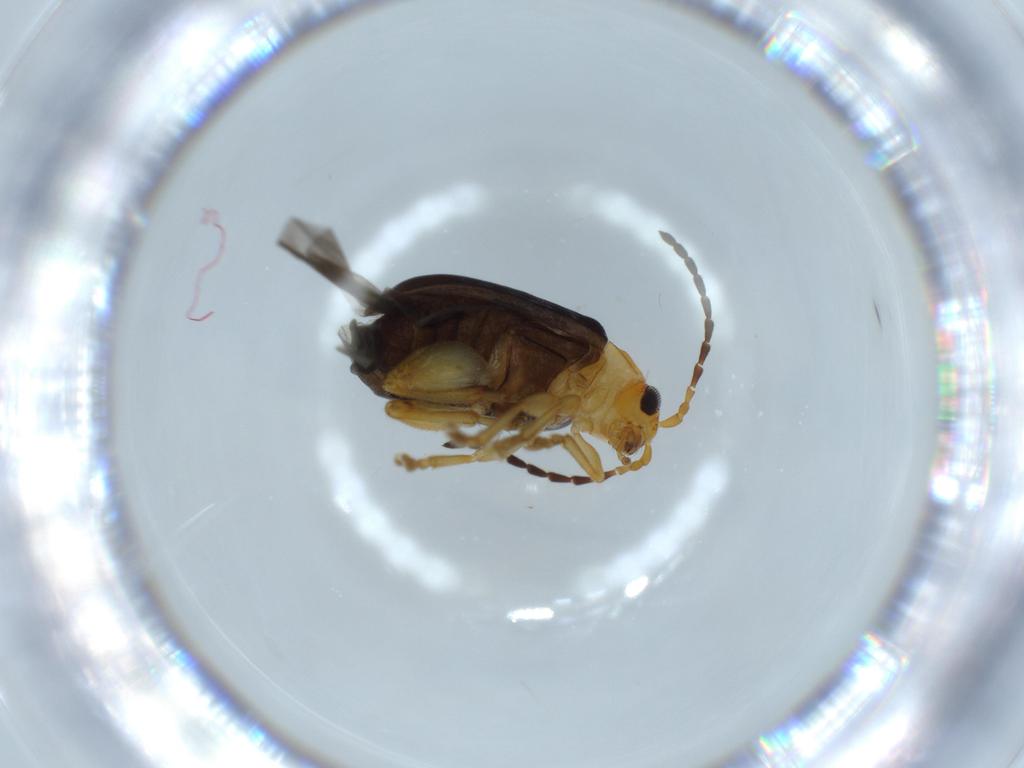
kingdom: Animalia
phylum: Arthropoda
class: Insecta
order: Coleoptera
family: Chrysomelidae
